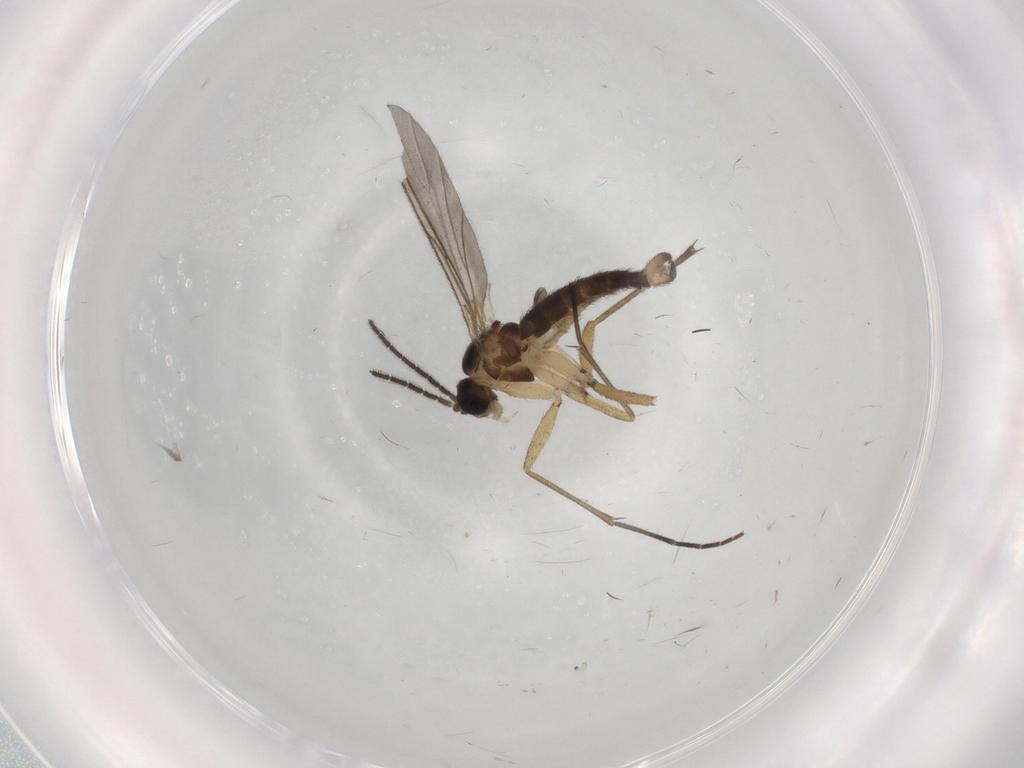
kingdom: Animalia
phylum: Arthropoda
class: Insecta
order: Diptera
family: Sciaridae
